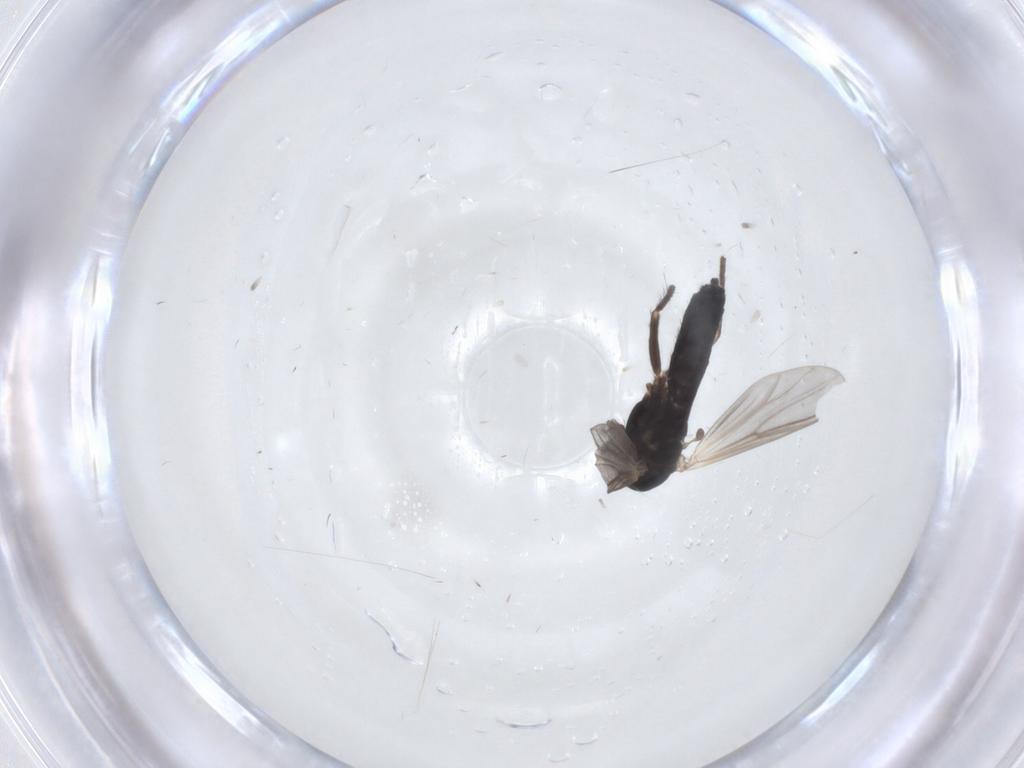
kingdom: Animalia
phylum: Arthropoda
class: Insecta
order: Diptera
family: Chironomidae
